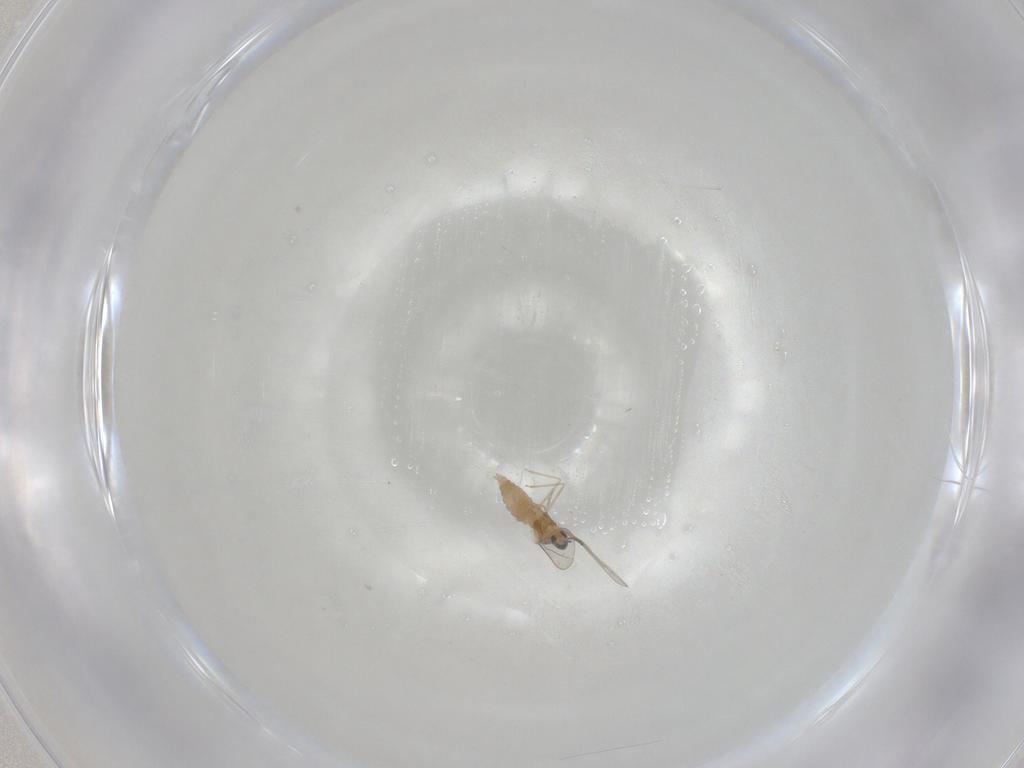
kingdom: Animalia
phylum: Arthropoda
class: Insecta
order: Diptera
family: Cecidomyiidae
